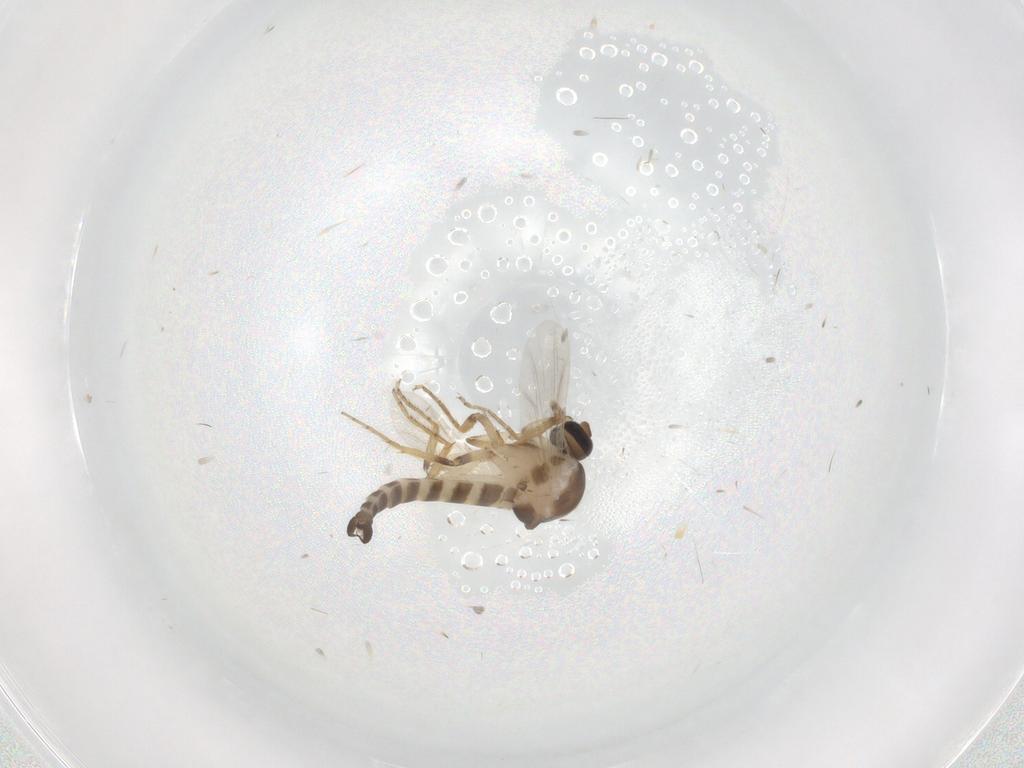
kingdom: Animalia
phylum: Arthropoda
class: Insecta
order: Diptera
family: Ceratopogonidae
